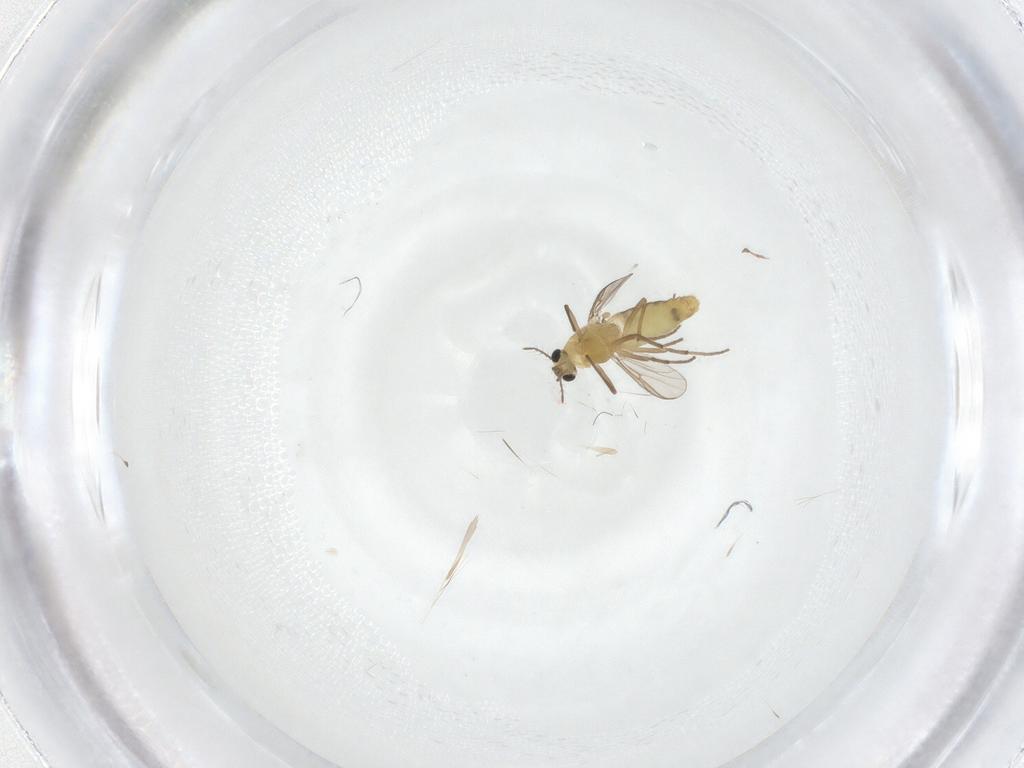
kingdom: Animalia
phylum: Arthropoda
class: Insecta
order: Diptera
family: Chironomidae
